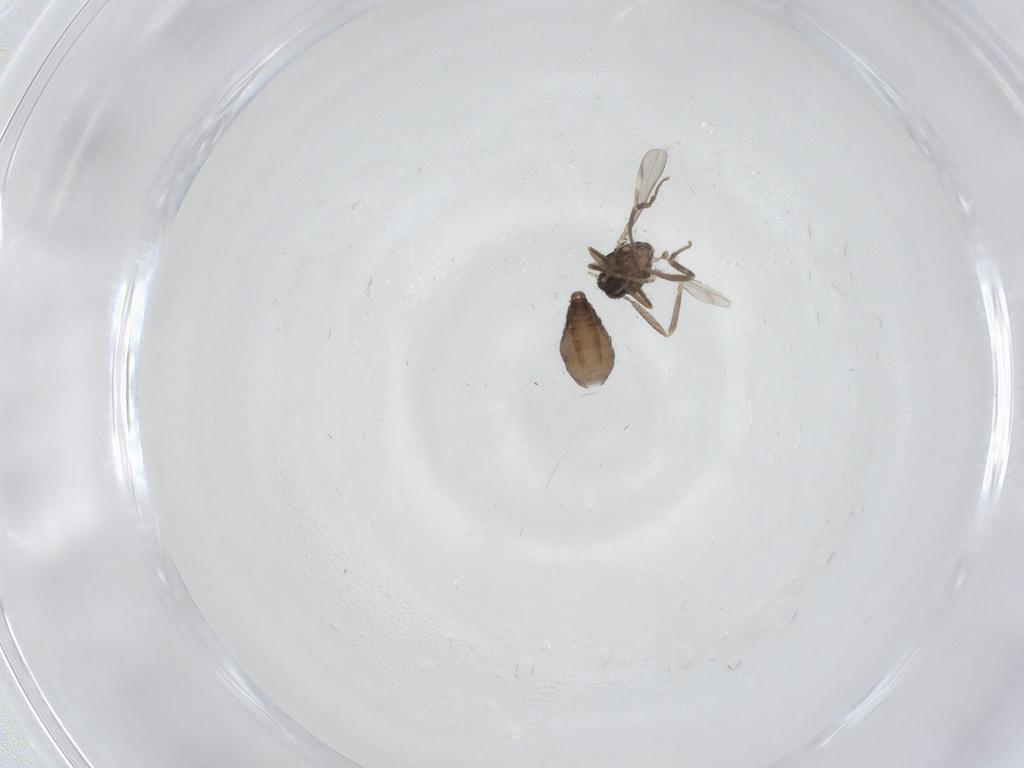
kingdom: Animalia
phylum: Arthropoda
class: Insecta
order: Diptera
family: Ceratopogonidae
